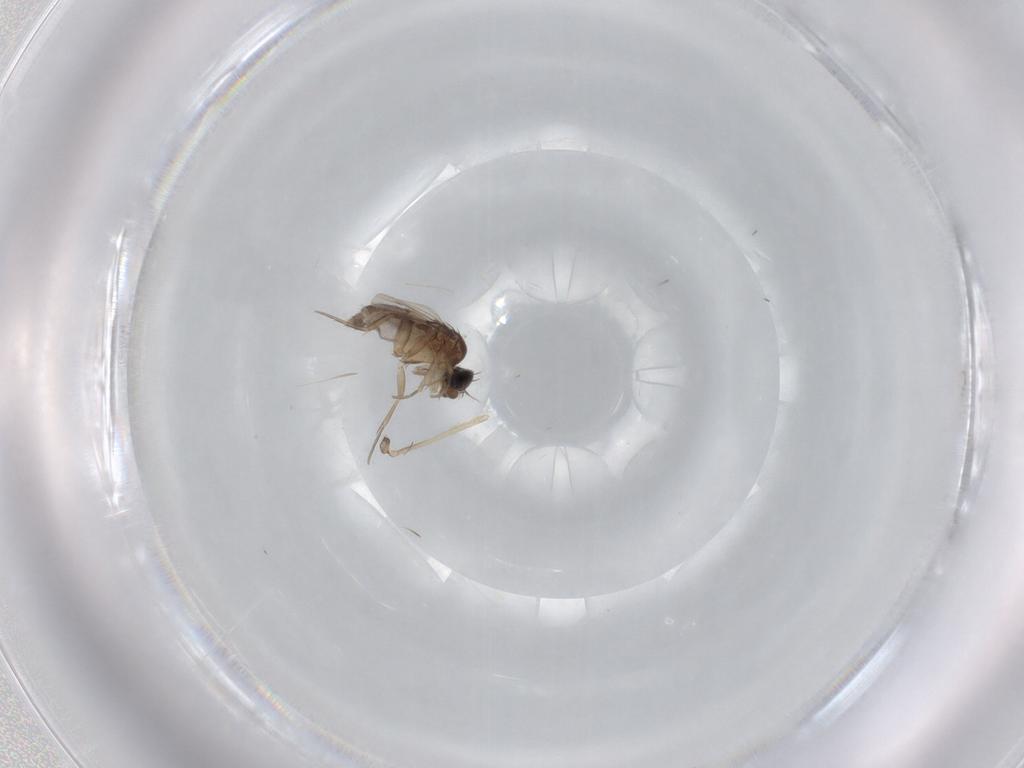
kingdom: Animalia
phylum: Arthropoda
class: Insecta
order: Diptera
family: Phoridae
